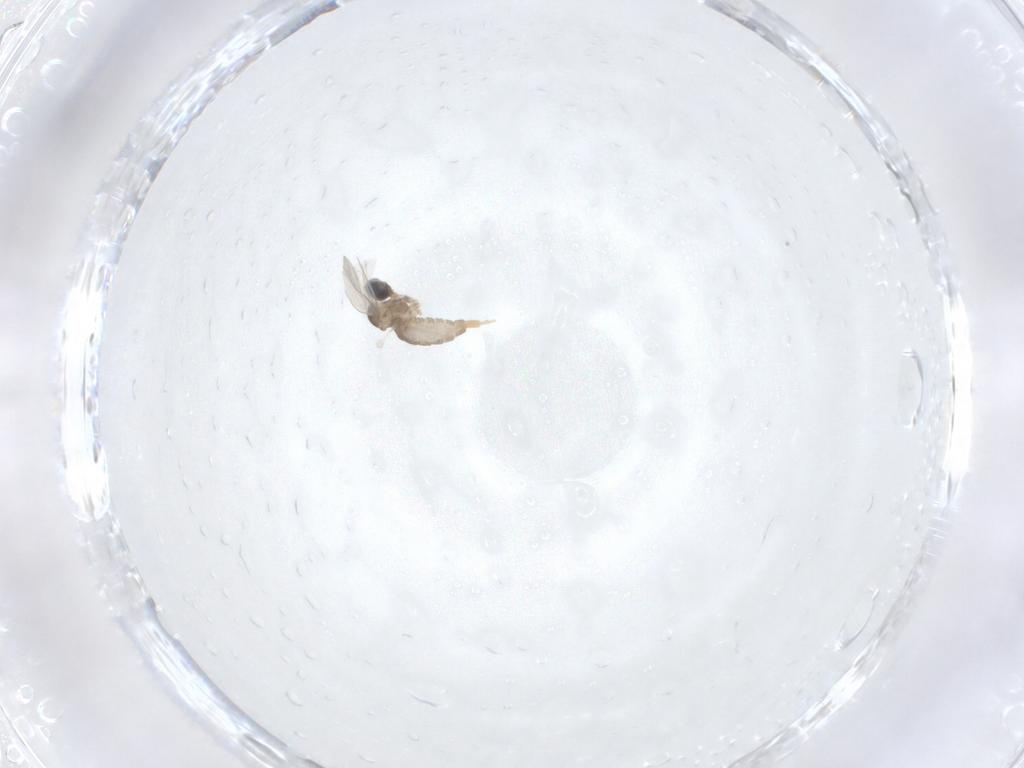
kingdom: Animalia
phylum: Arthropoda
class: Insecta
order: Diptera
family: Cecidomyiidae
